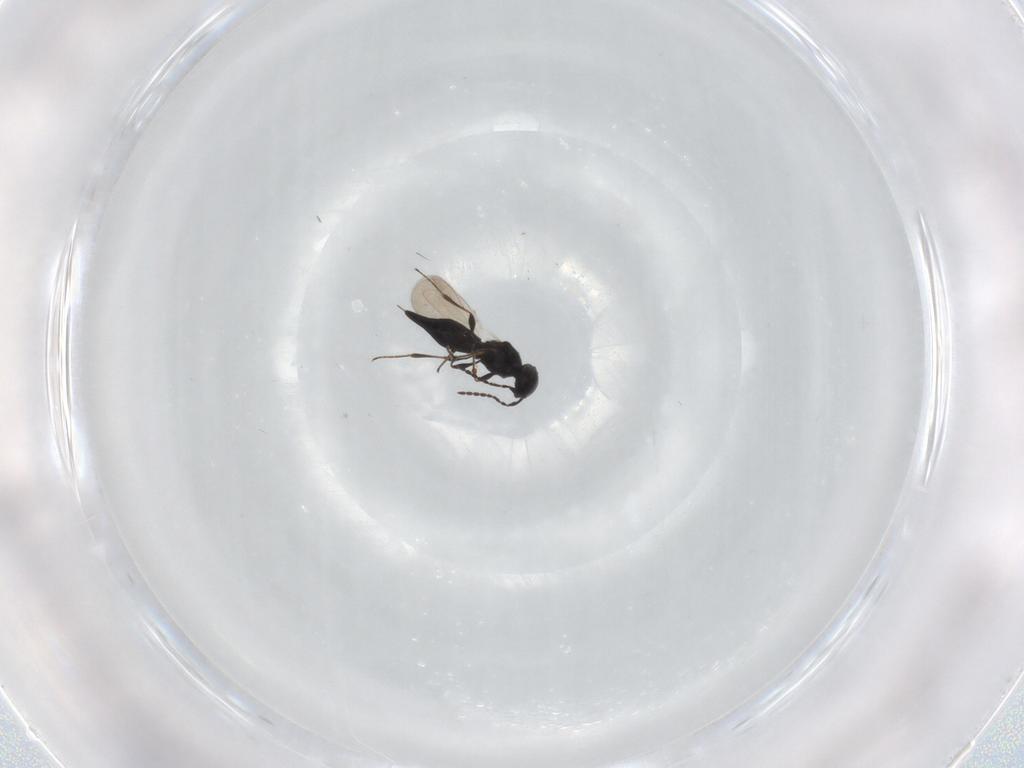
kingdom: Animalia
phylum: Arthropoda
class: Insecta
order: Hymenoptera
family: Platygastridae
